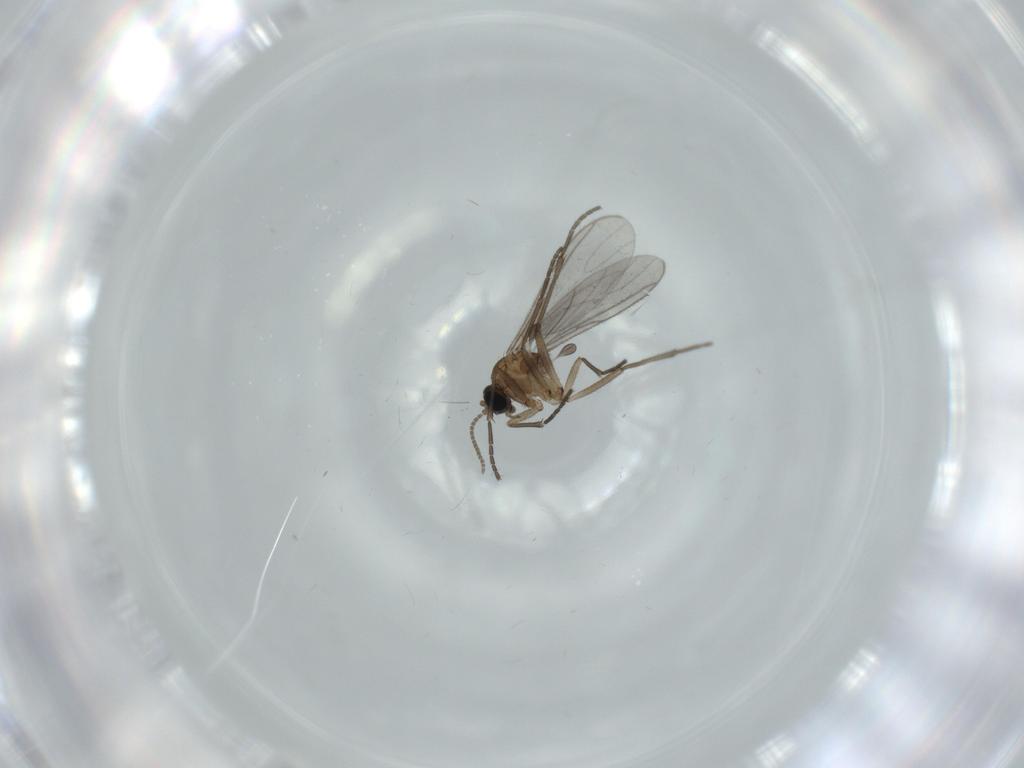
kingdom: Animalia
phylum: Arthropoda
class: Insecta
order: Diptera
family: Sciaridae
